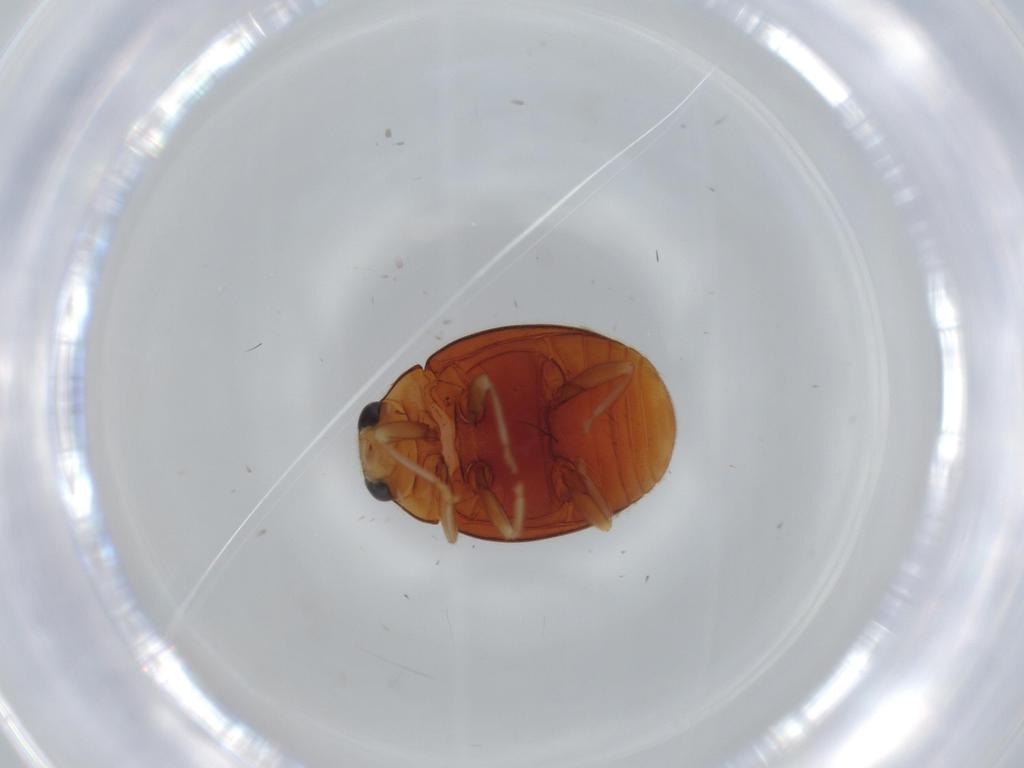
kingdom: Animalia
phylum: Arthropoda
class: Insecta
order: Coleoptera
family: Coccinellidae
